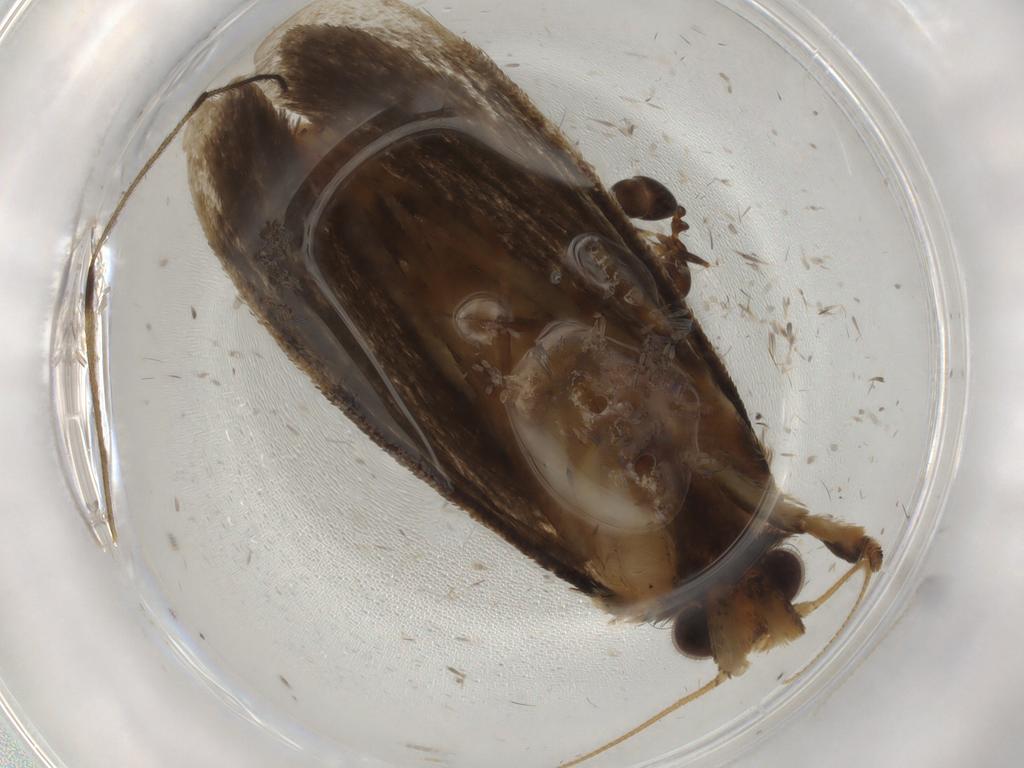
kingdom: Animalia
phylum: Arthropoda
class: Insecta
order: Lepidoptera
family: Tineidae
